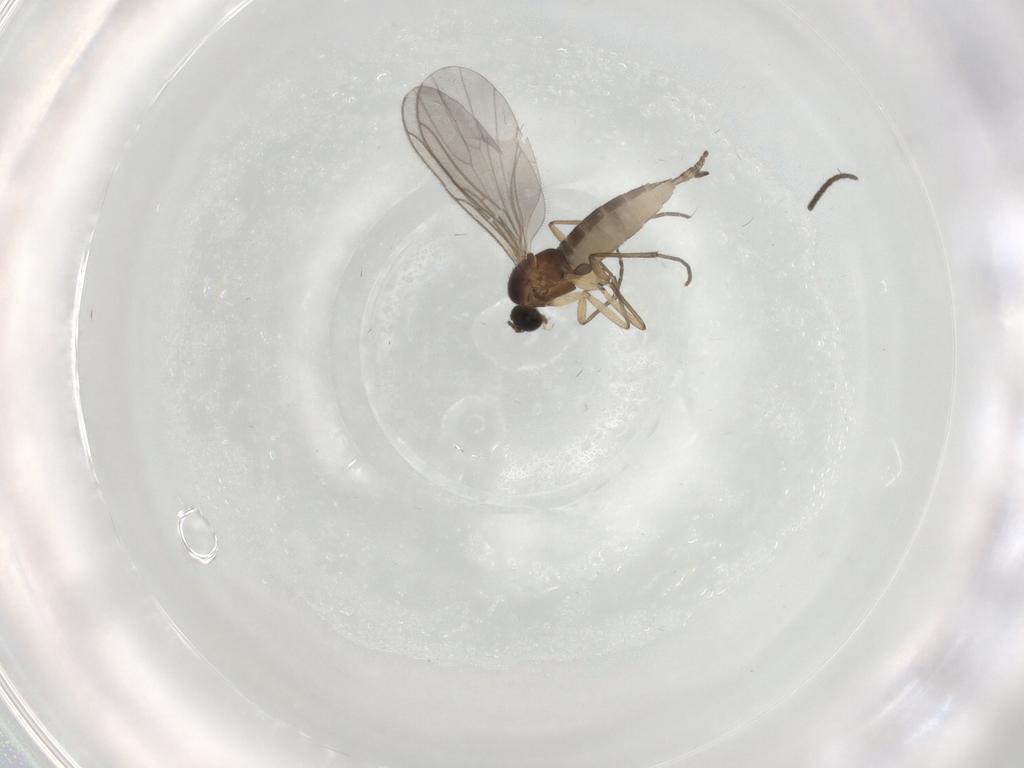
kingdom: Animalia
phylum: Arthropoda
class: Insecta
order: Diptera
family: Sciaridae
